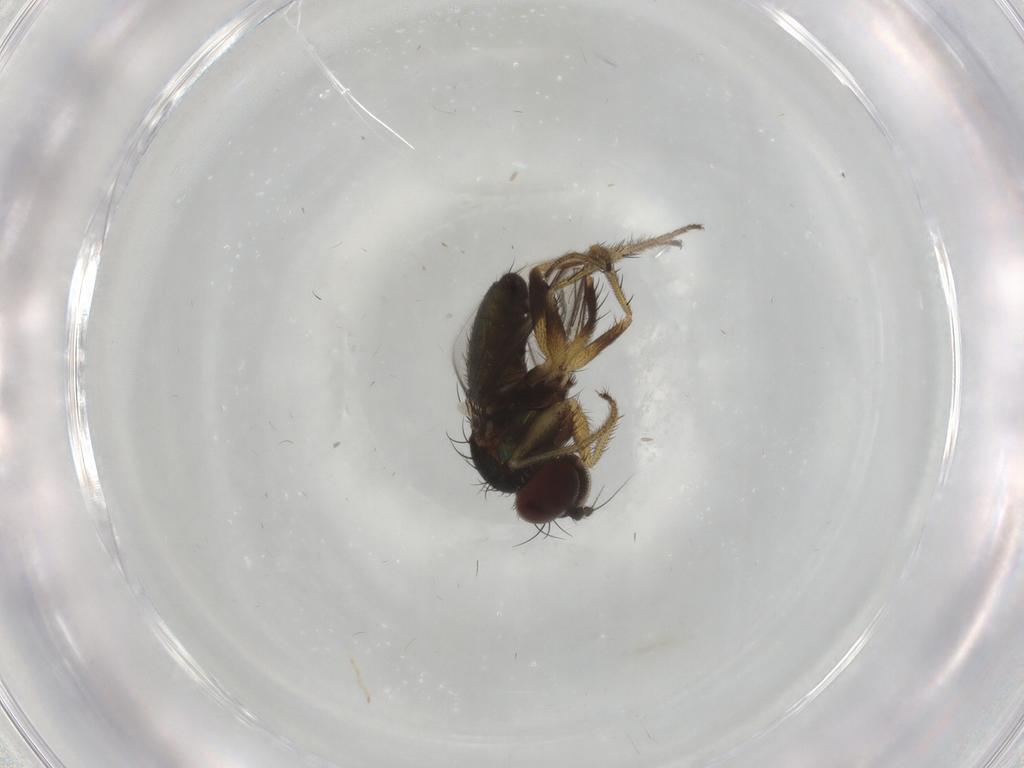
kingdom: Animalia
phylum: Arthropoda
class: Insecta
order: Diptera
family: Dolichopodidae
